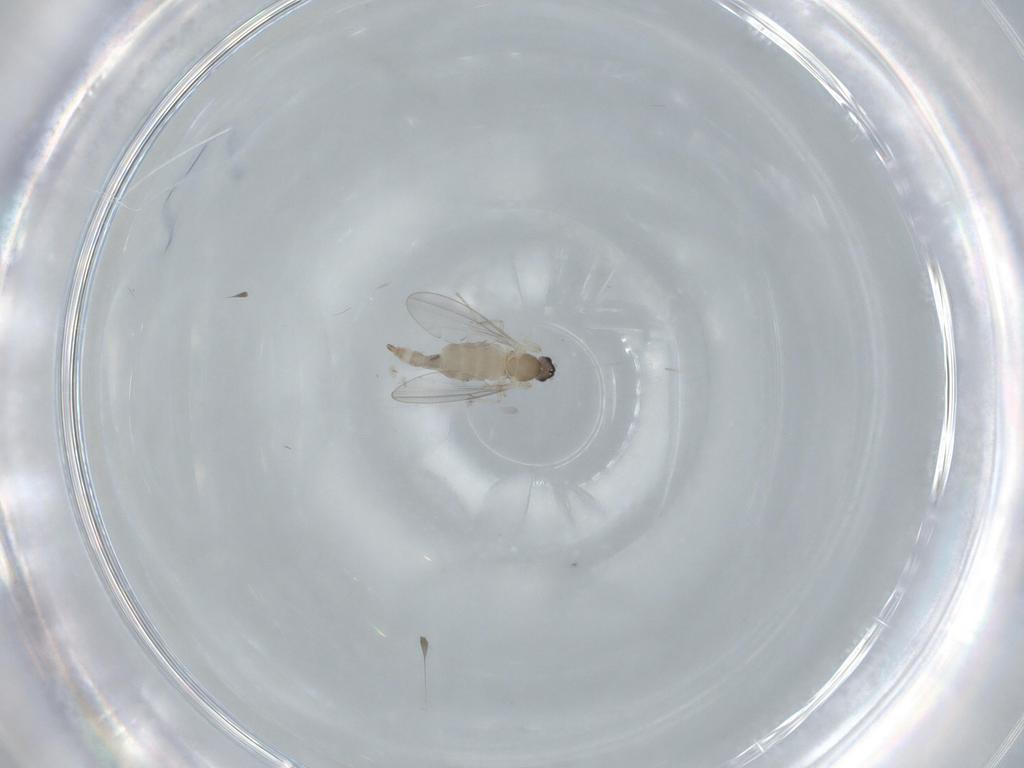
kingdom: Animalia
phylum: Arthropoda
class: Insecta
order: Diptera
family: Cecidomyiidae
